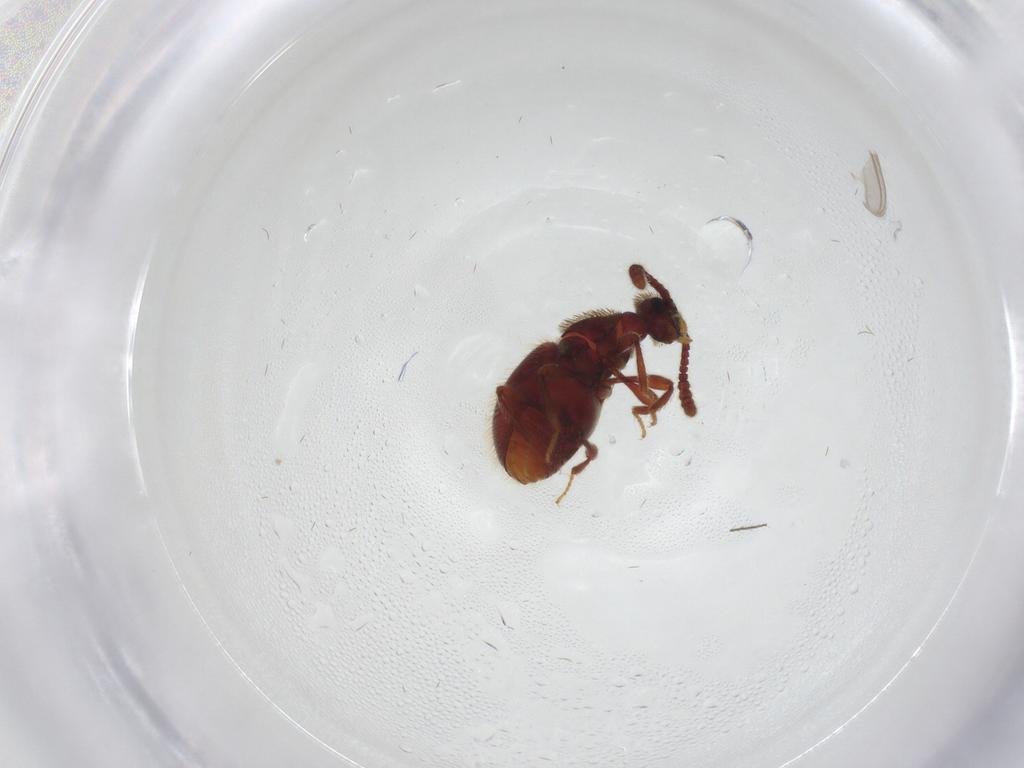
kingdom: Animalia
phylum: Arthropoda
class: Insecta
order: Coleoptera
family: Staphylinidae
